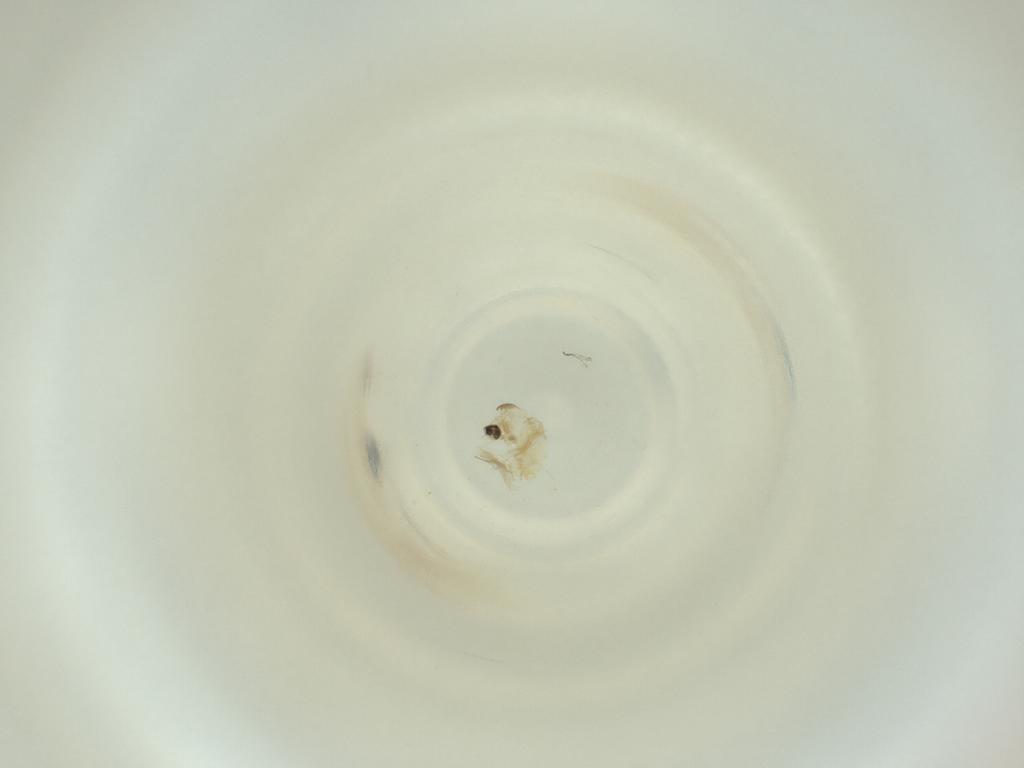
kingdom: Animalia
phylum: Arthropoda
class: Insecta
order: Diptera
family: Cecidomyiidae
